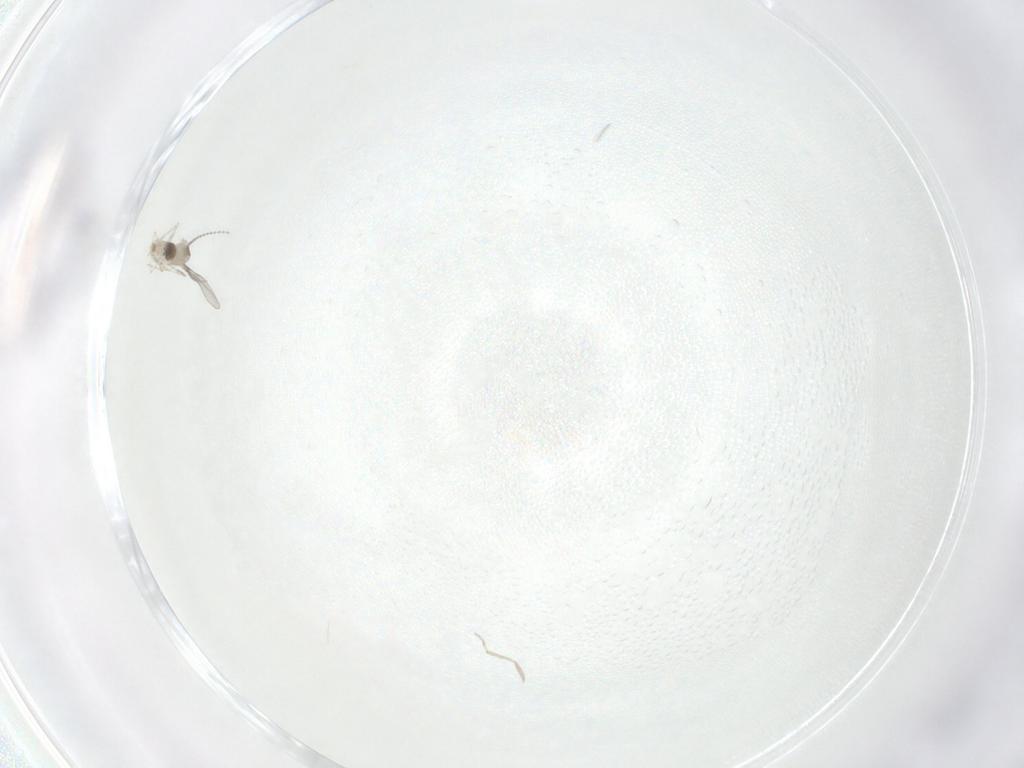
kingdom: Animalia
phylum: Arthropoda
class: Insecta
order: Diptera
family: Cecidomyiidae
